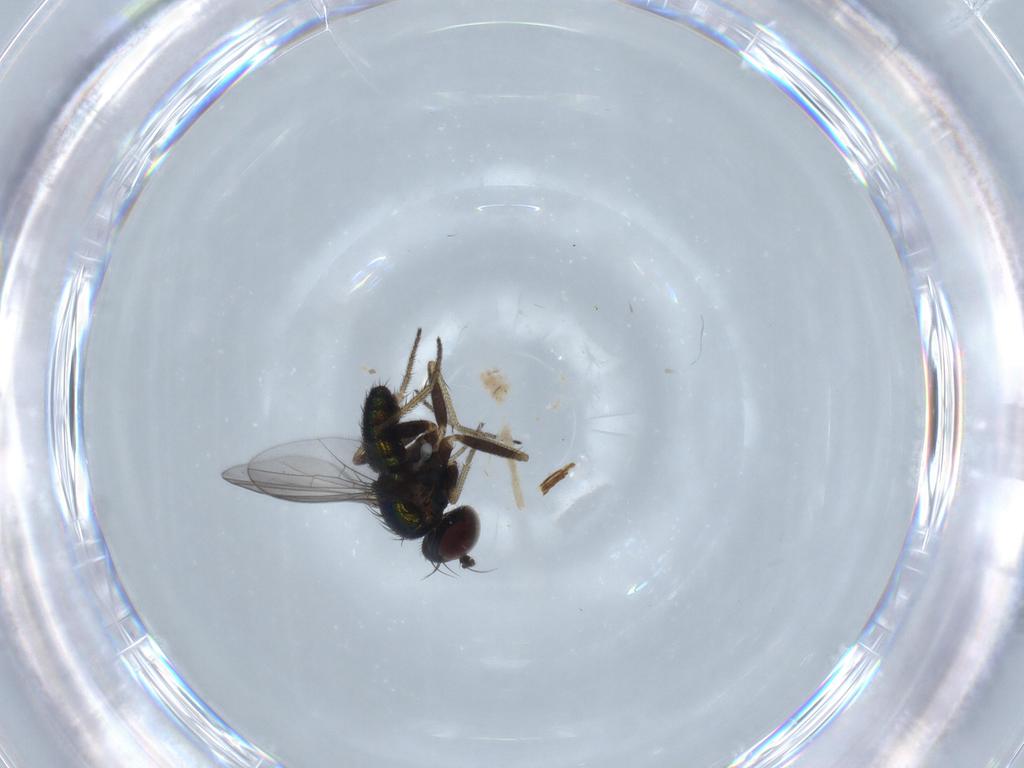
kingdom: Animalia
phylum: Arthropoda
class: Insecta
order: Diptera
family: Dolichopodidae
